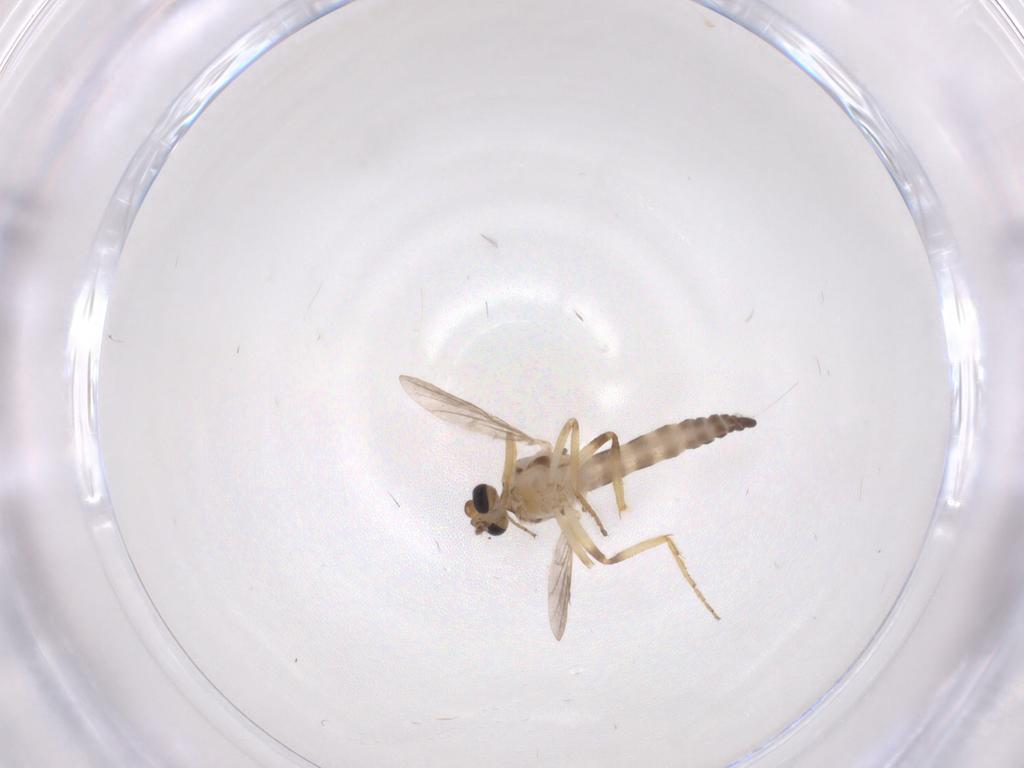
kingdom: Animalia
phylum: Arthropoda
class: Insecta
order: Diptera
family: Ceratopogonidae
